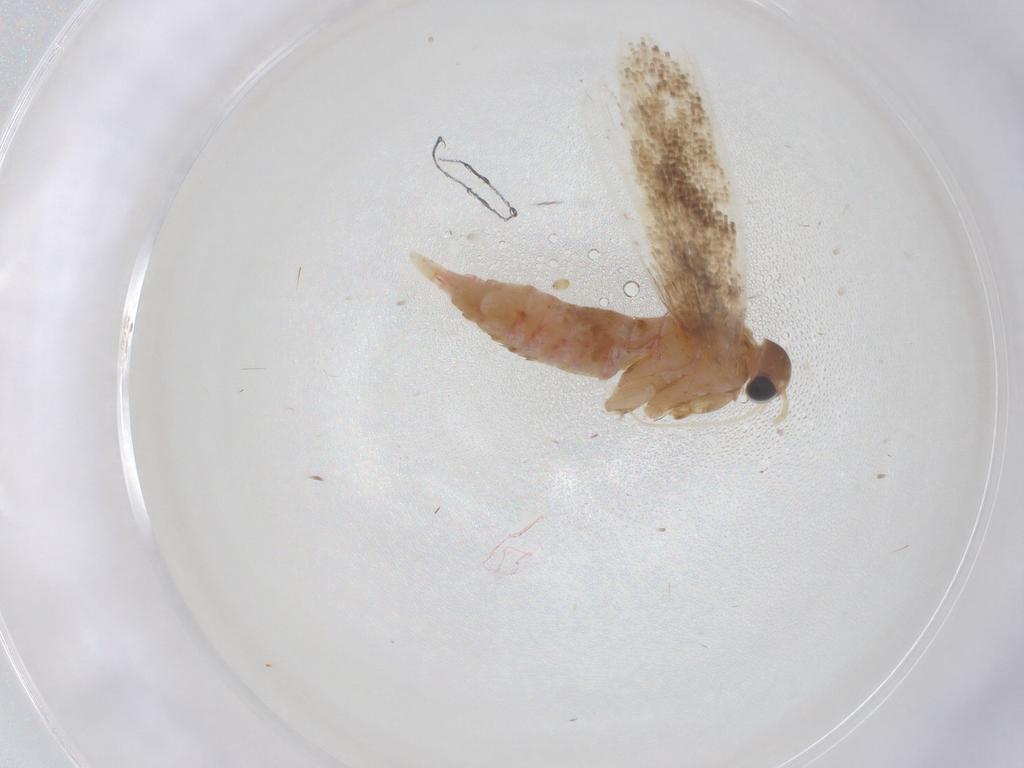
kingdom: Animalia
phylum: Arthropoda
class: Insecta
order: Lepidoptera
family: Gelechiidae
